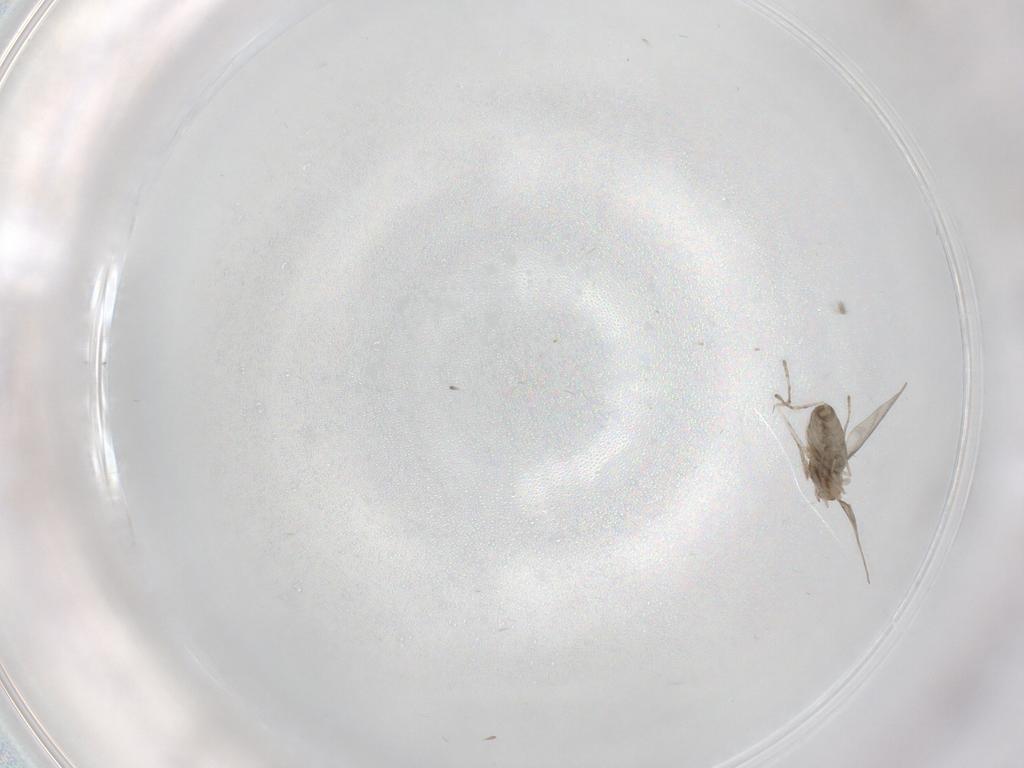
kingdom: Animalia
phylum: Arthropoda
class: Insecta
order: Diptera
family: Cecidomyiidae
